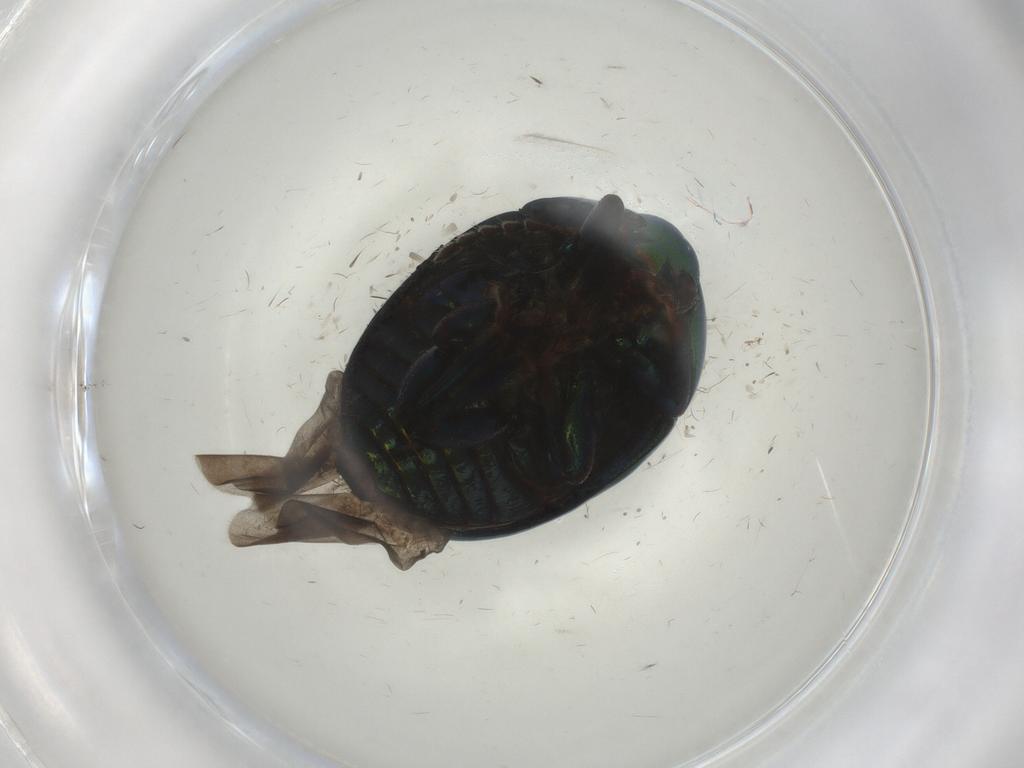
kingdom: Animalia
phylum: Arthropoda
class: Insecta
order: Coleoptera
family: Chrysomelidae
